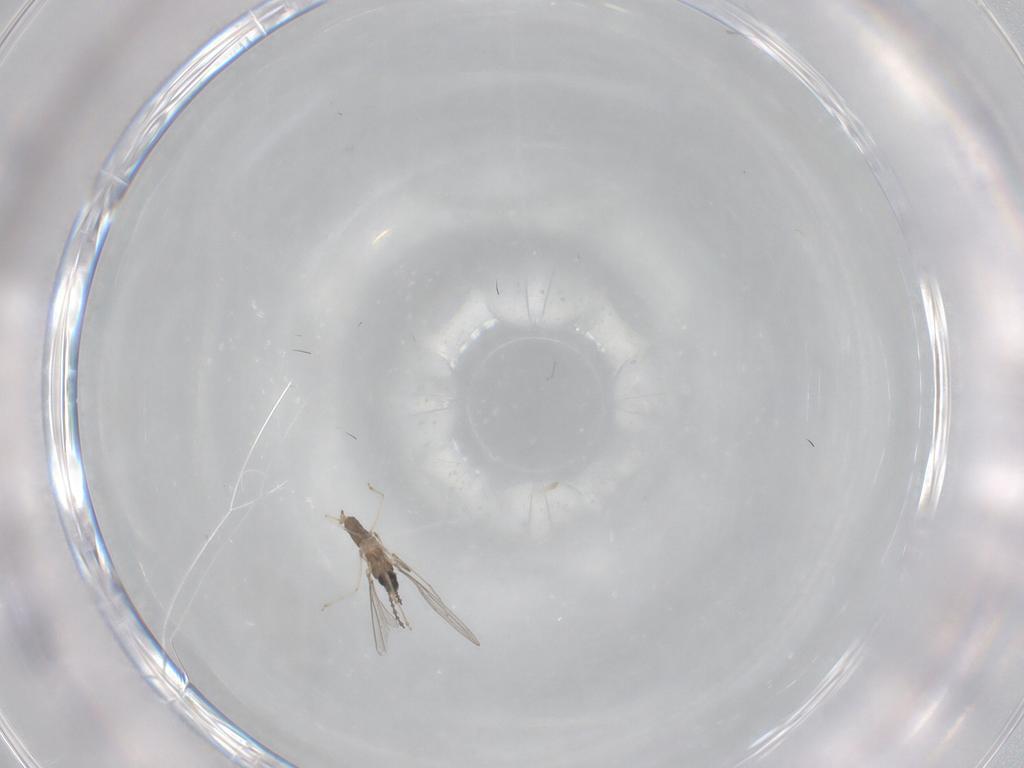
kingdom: Animalia
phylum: Arthropoda
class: Insecta
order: Diptera
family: Cecidomyiidae
